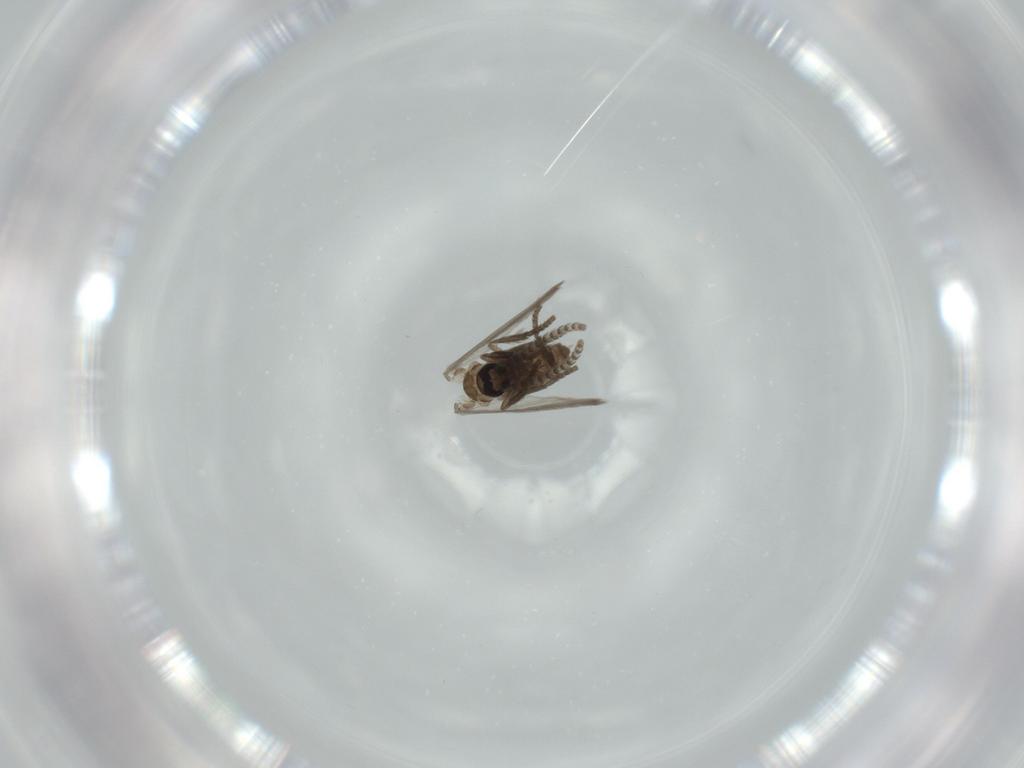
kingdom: Animalia
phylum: Arthropoda
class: Insecta
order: Diptera
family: Psychodidae
